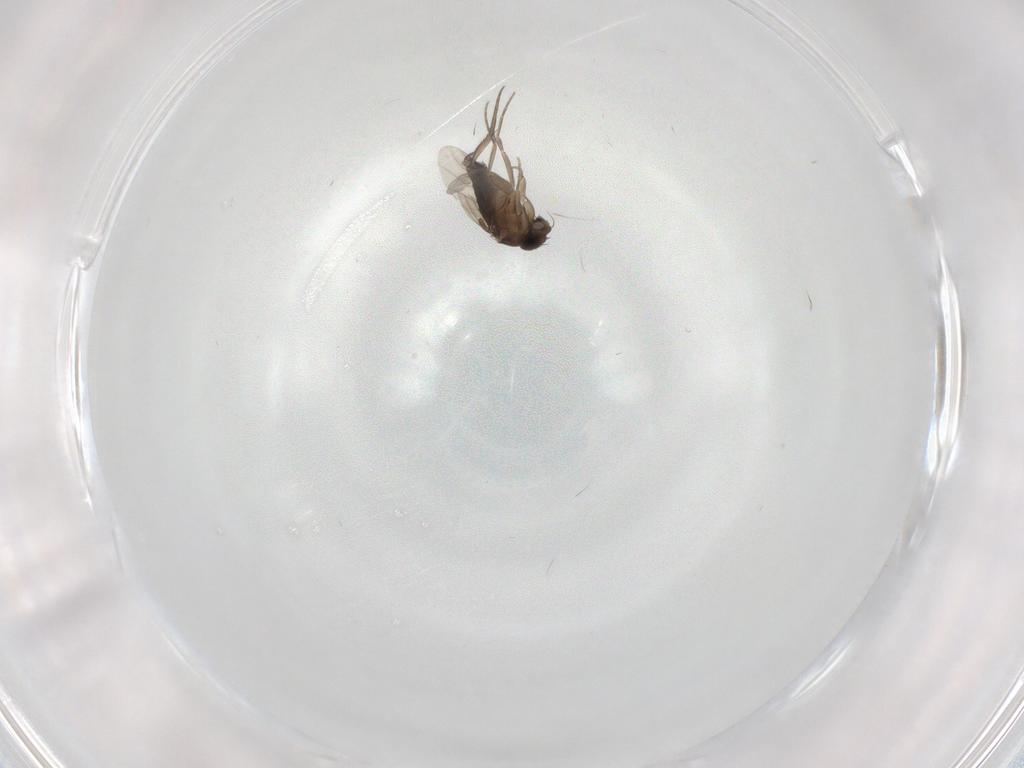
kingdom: Animalia
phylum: Arthropoda
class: Insecta
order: Diptera
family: Phoridae
